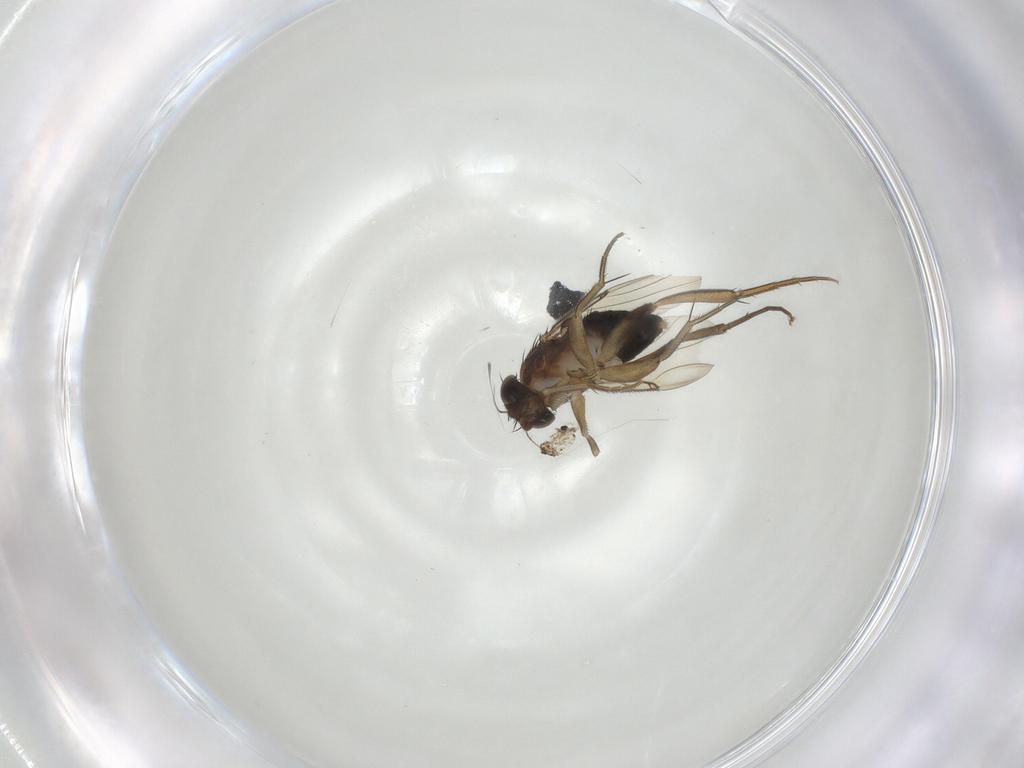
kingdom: Animalia
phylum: Arthropoda
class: Insecta
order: Diptera
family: Phoridae
